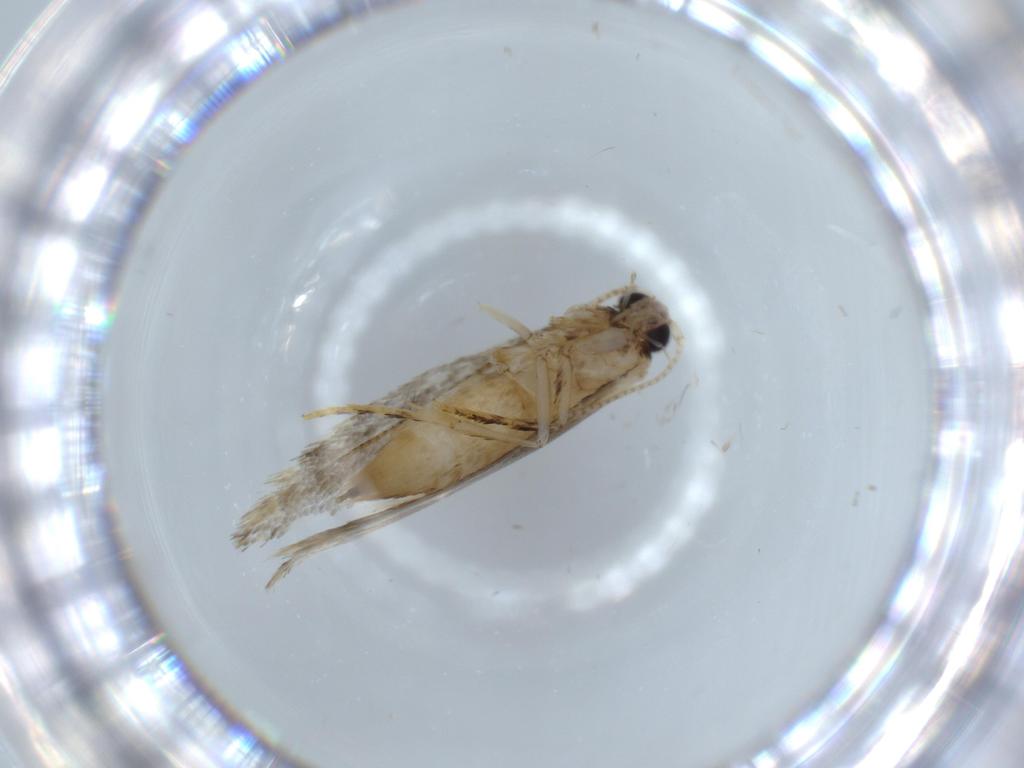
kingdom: Animalia
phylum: Arthropoda
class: Insecta
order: Lepidoptera
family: Tineidae
